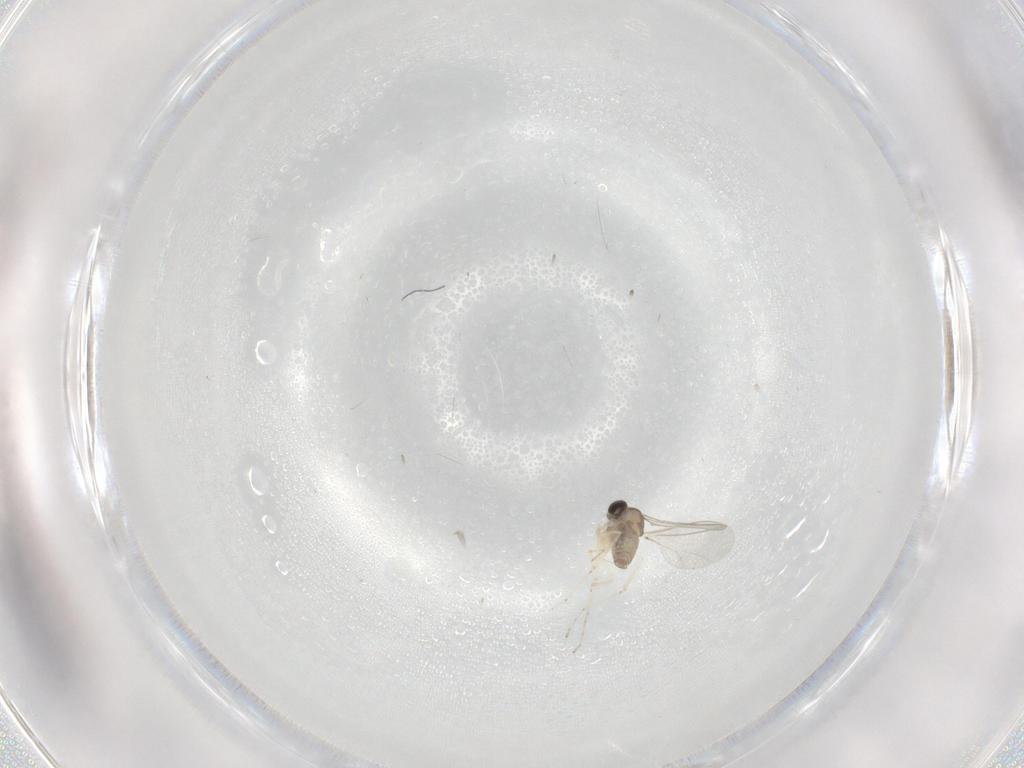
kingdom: Animalia
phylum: Arthropoda
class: Insecta
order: Diptera
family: Cecidomyiidae
